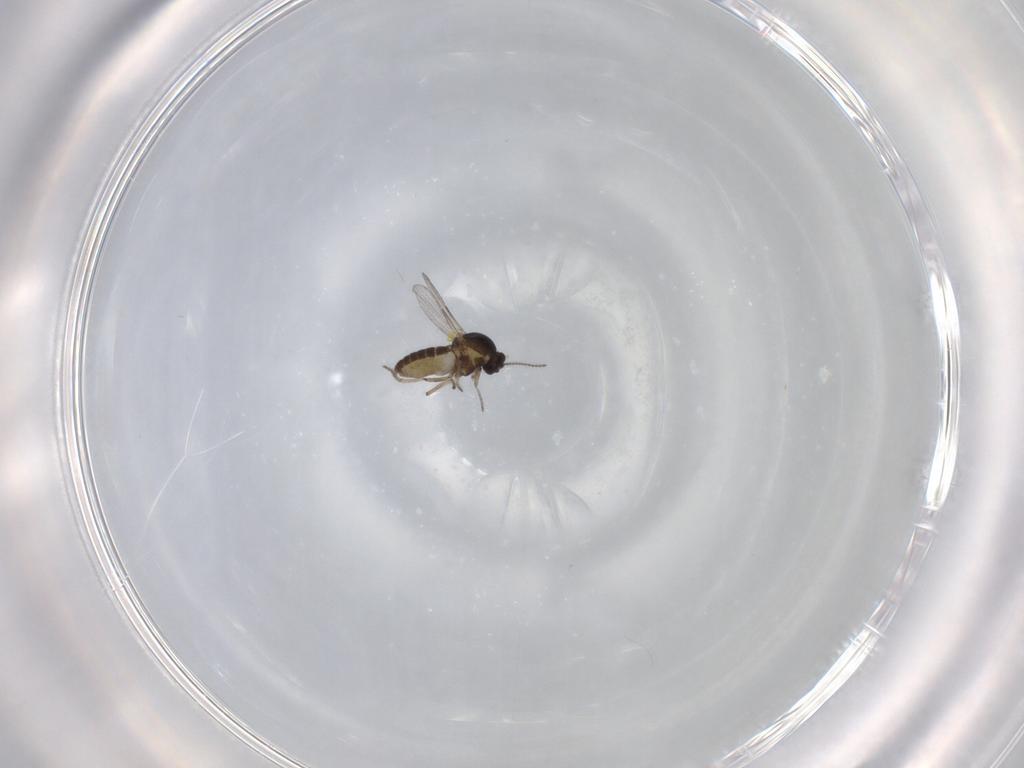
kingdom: Animalia
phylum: Arthropoda
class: Insecta
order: Diptera
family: Ceratopogonidae
